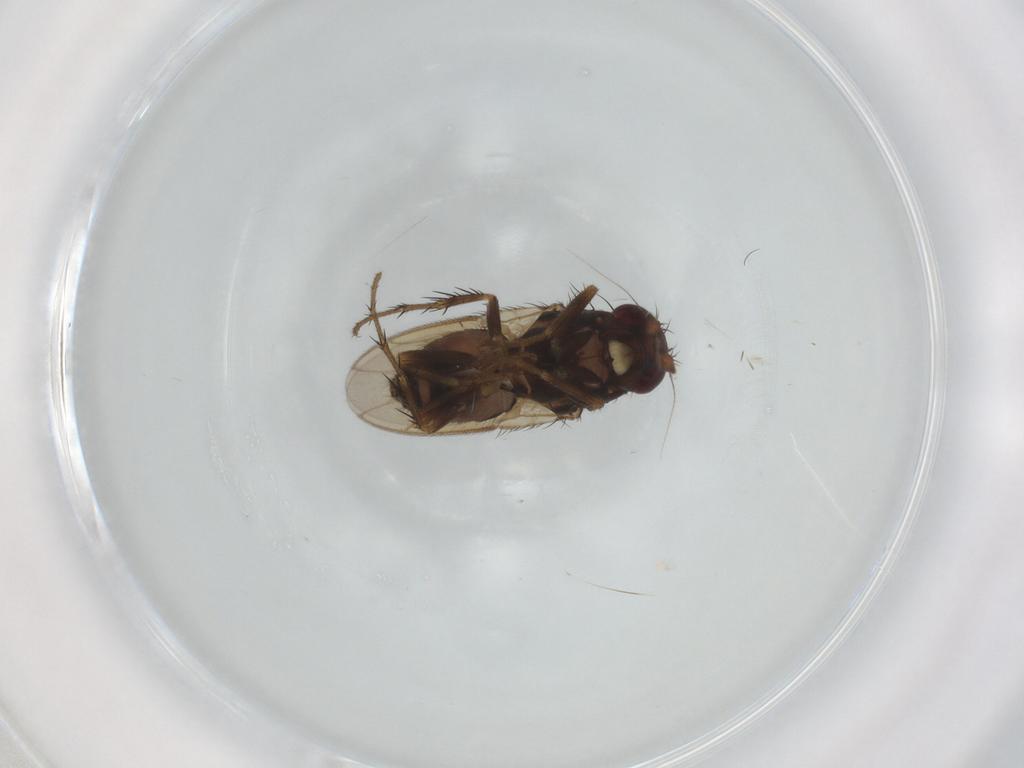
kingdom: Animalia
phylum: Arthropoda
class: Insecta
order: Diptera
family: Sphaeroceridae
